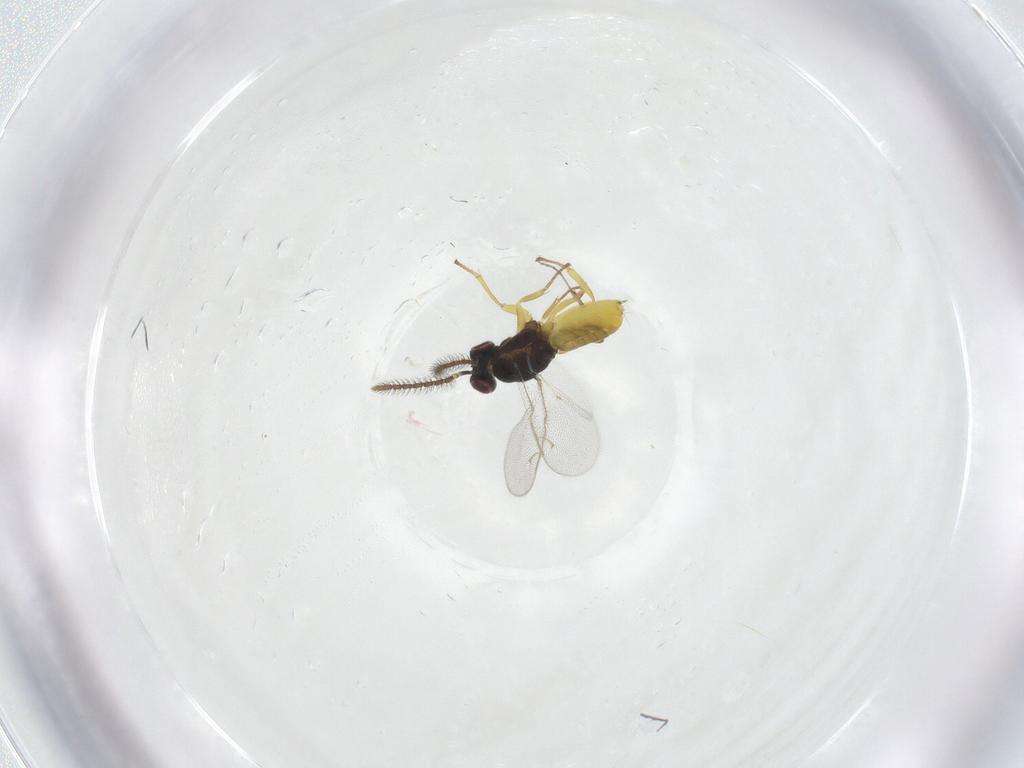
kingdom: Animalia
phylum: Arthropoda
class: Insecta
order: Hymenoptera
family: Trichogrammatidae
